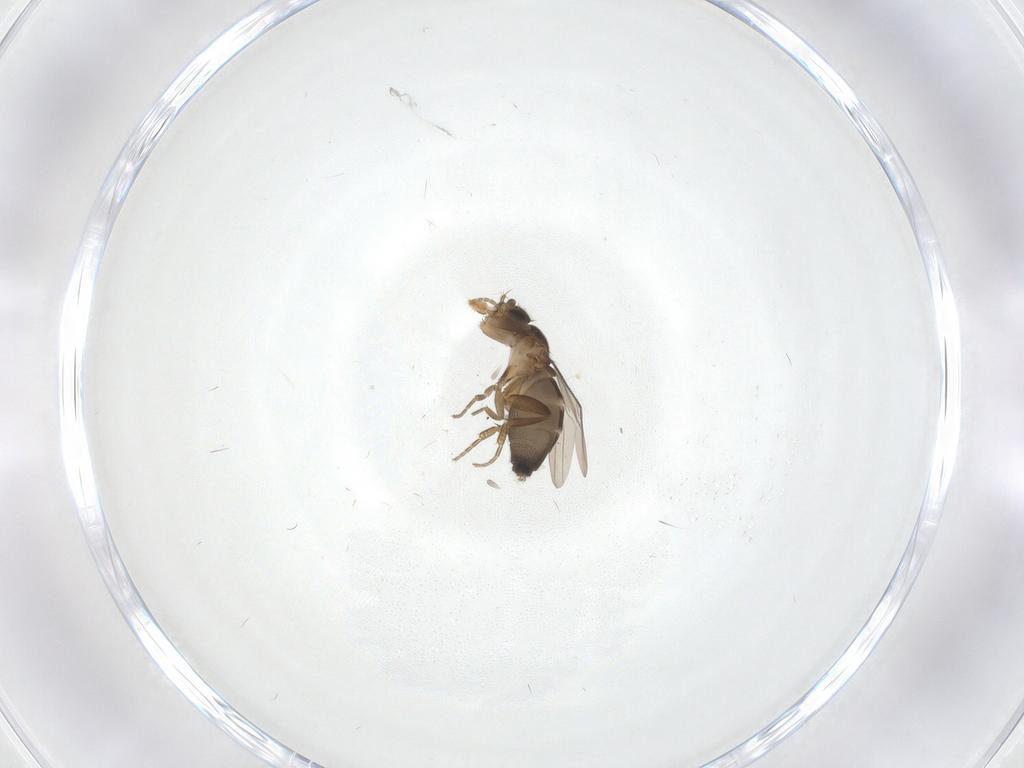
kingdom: Animalia
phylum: Arthropoda
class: Insecta
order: Diptera
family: Phoridae
